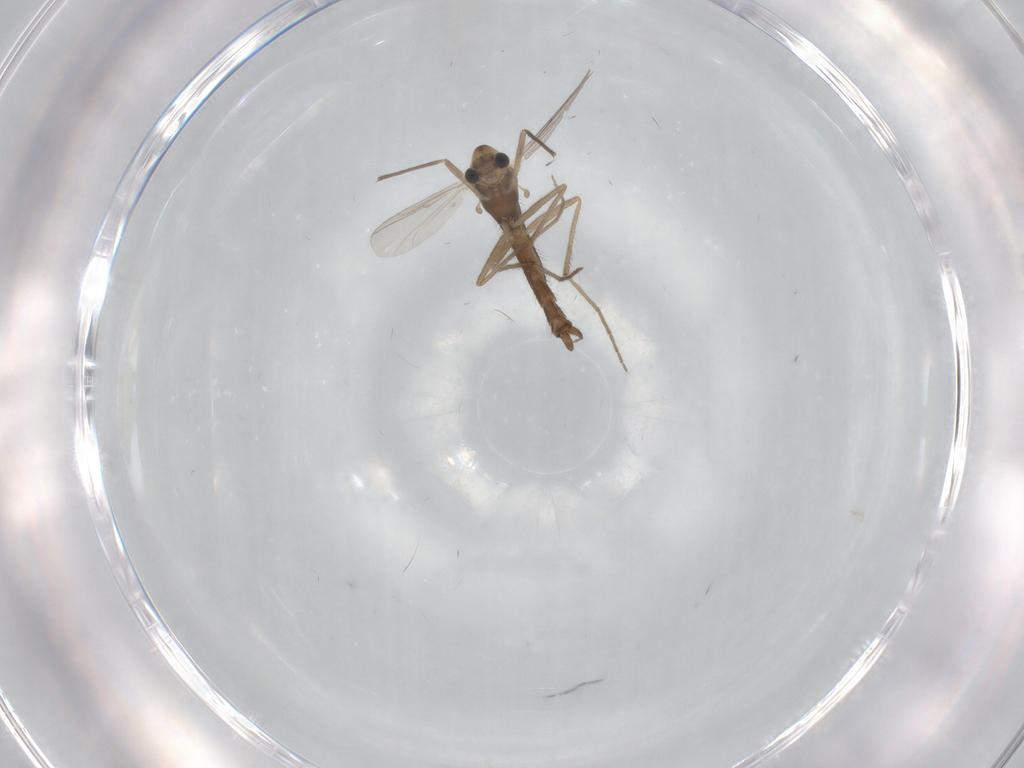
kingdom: Animalia
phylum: Arthropoda
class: Insecta
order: Diptera
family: Chironomidae
